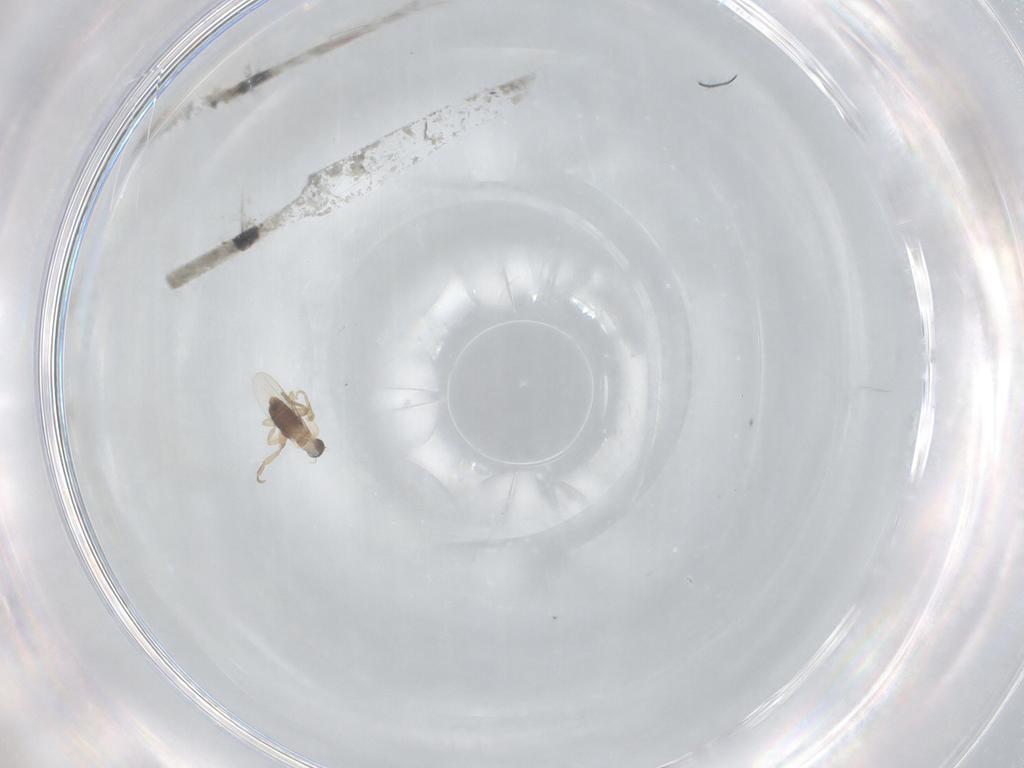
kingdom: Animalia
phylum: Arthropoda
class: Insecta
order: Diptera
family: Phoridae
